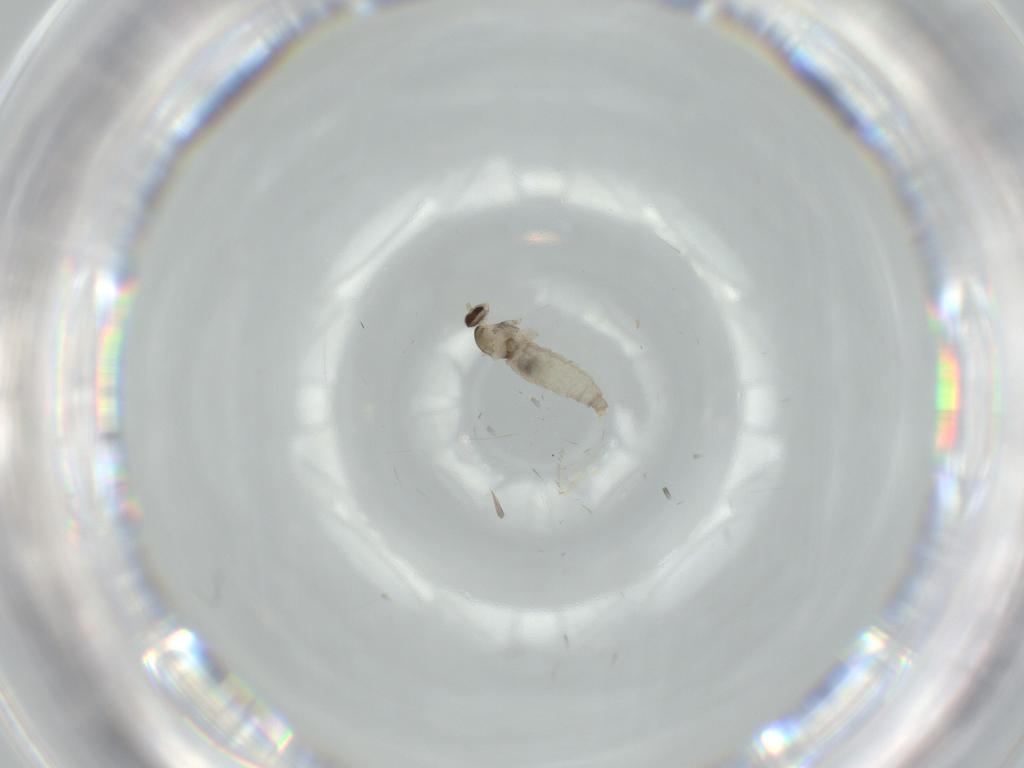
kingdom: Animalia
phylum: Arthropoda
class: Insecta
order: Diptera
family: Cecidomyiidae
